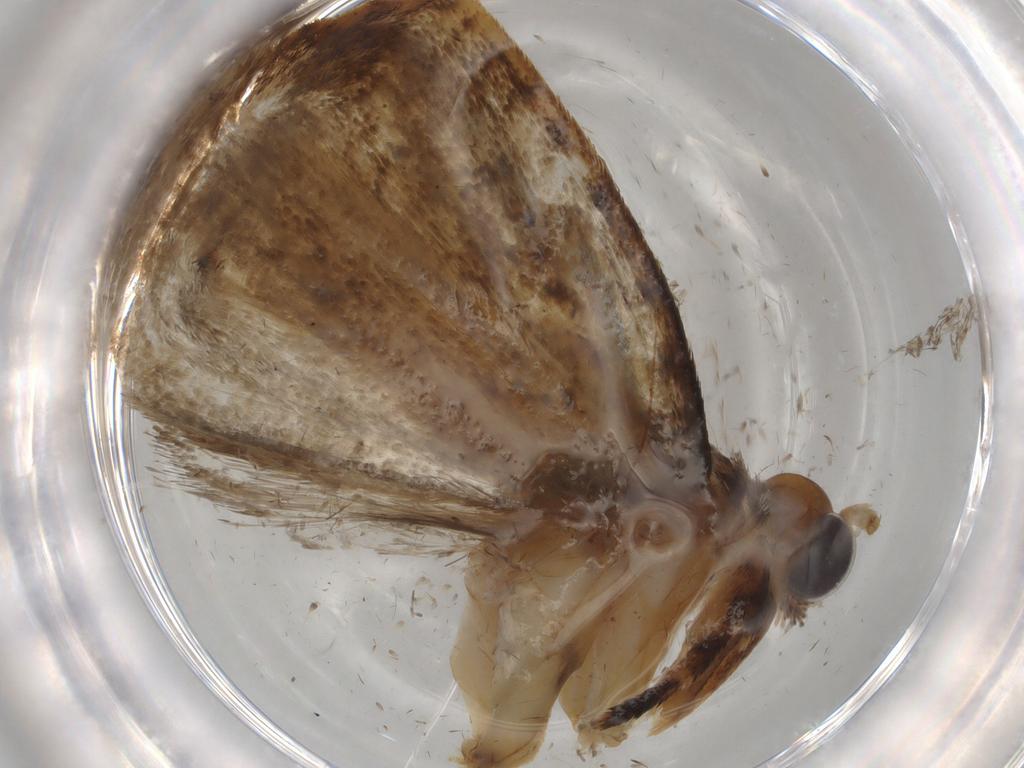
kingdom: Animalia
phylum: Arthropoda
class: Insecta
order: Lepidoptera
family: Tineidae
